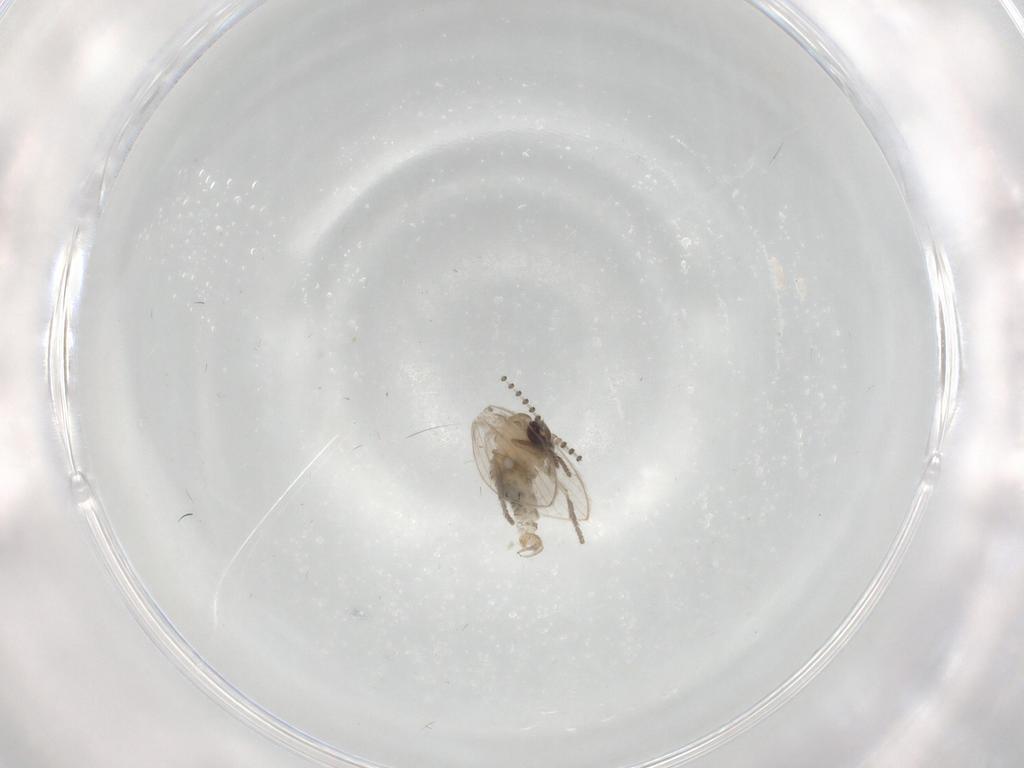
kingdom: Animalia
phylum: Arthropoda
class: Insecta
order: Diptera
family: Psychodidae
